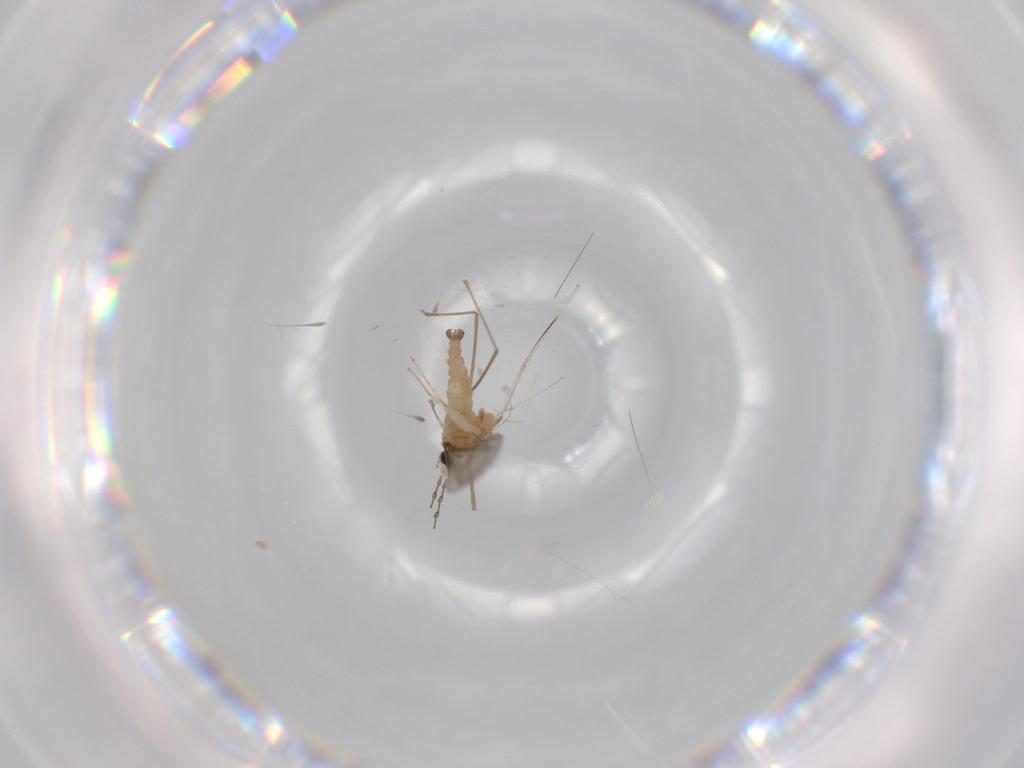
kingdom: Animalia
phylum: Arthropoda
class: Insecta
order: Diptera
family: Cecidomyiidae
